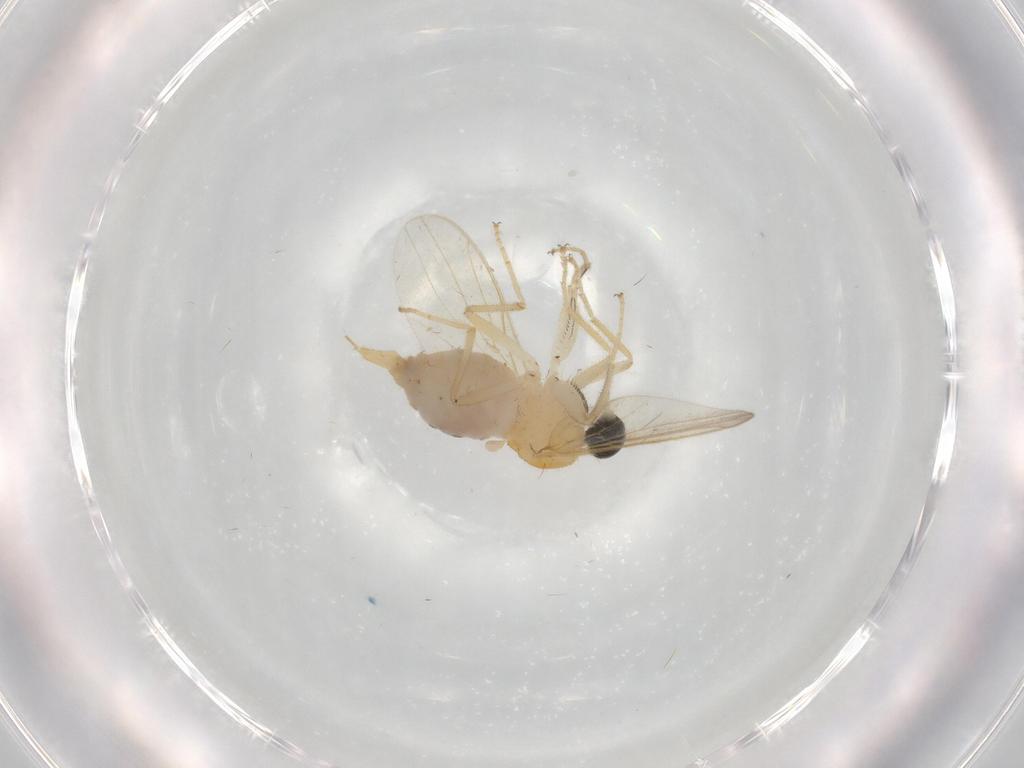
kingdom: Animalia
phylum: Arthropoda
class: Insecta
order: Diptera
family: Hybotidae
